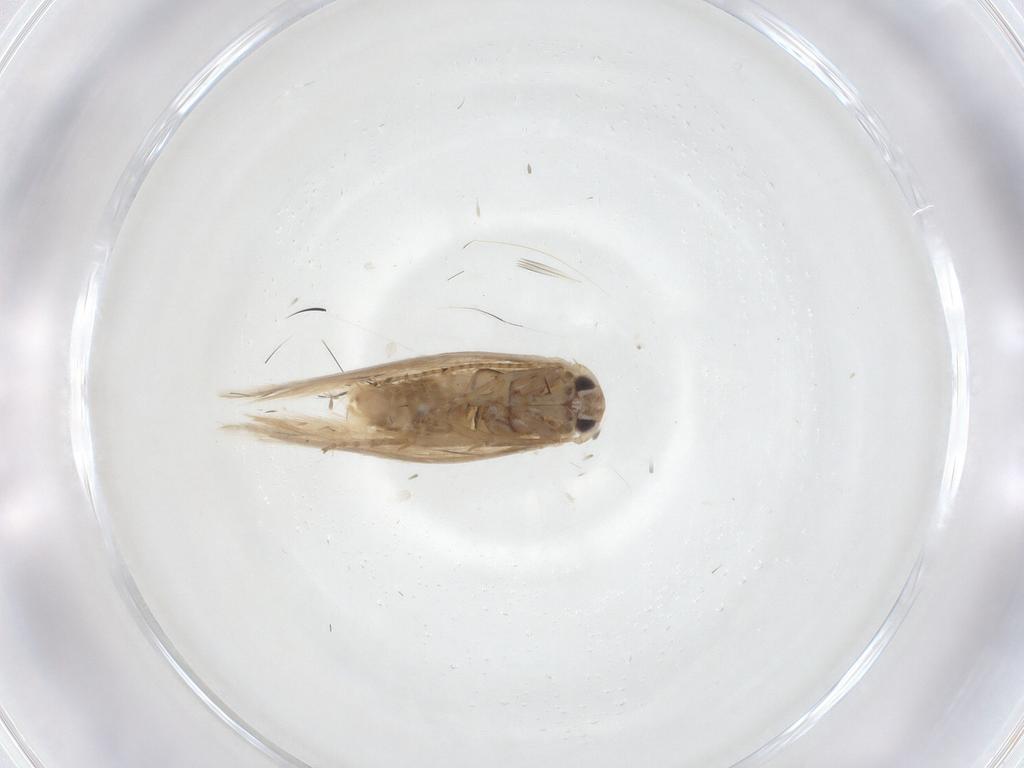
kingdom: Animalia
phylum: Arthropoda
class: Insecta
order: Lepidoptera
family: Bucculatricidae
